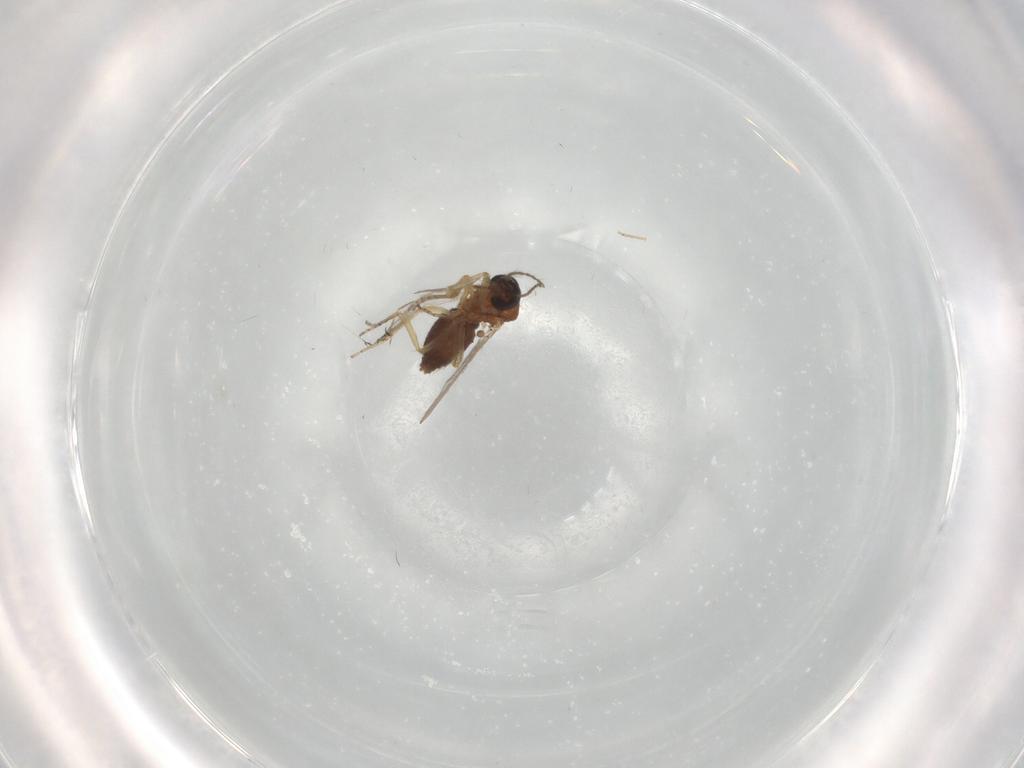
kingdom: Animalia
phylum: Arthropoda
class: Insecta
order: Diptera
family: Ceratopogonidae
